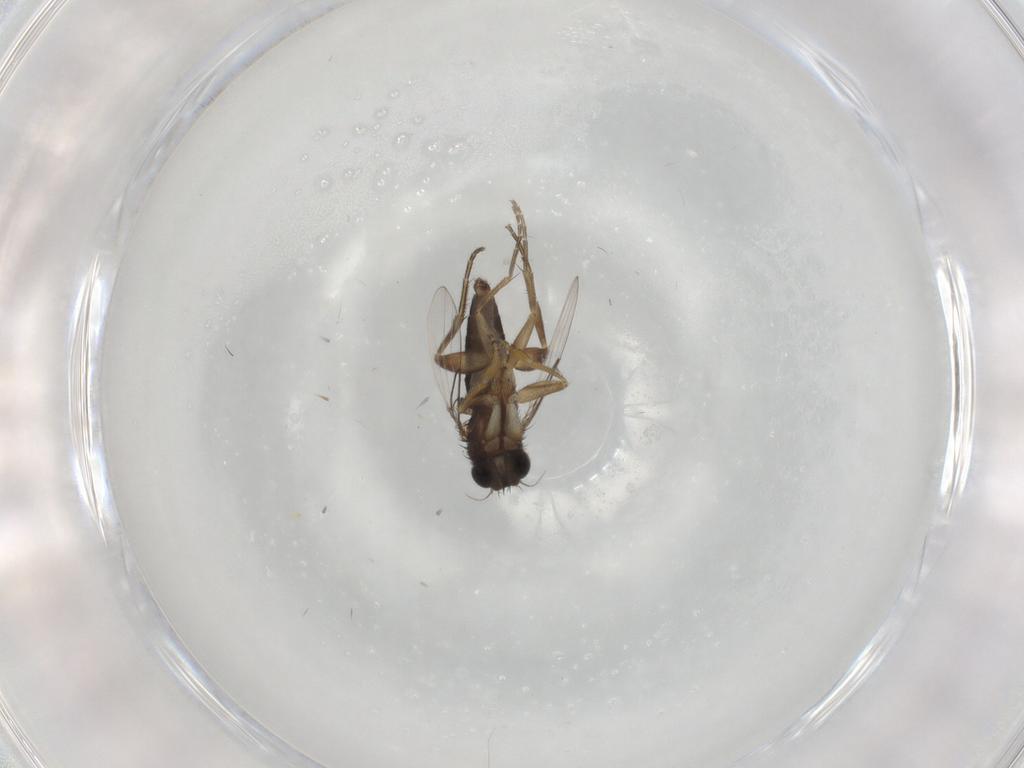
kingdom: Animalia
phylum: Arthropoda
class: Insecta
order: Diptera
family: Phoridae
